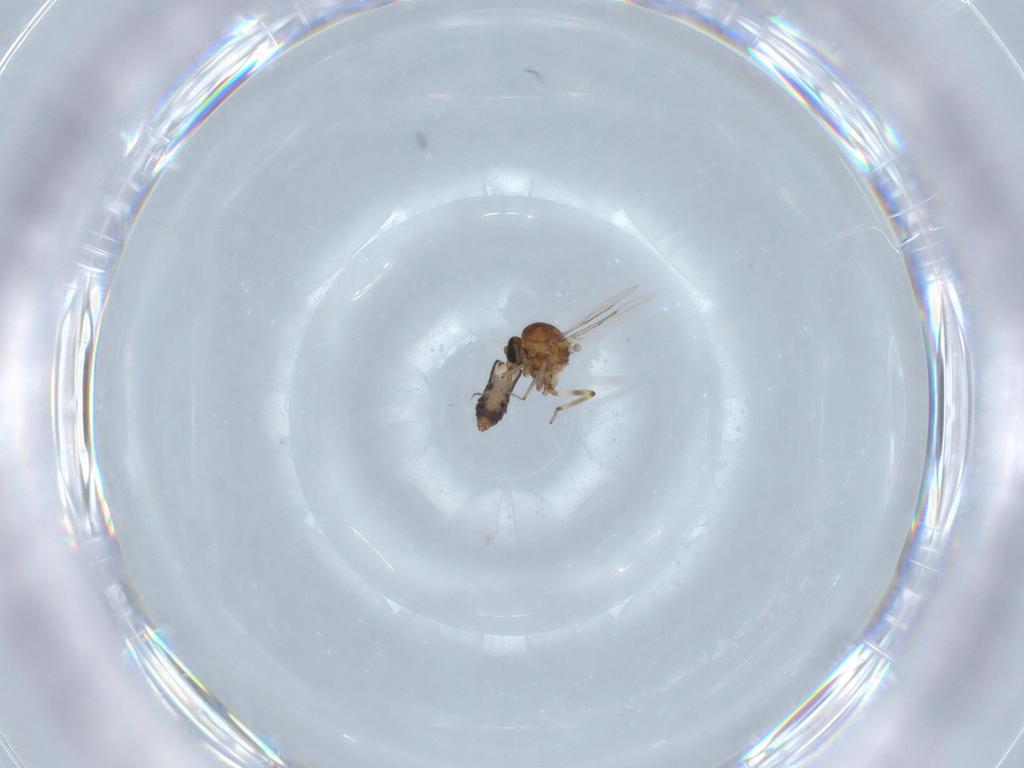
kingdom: Animalia
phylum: Arthropoda
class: Insecta
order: Diptera
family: Ceratopogonidae
